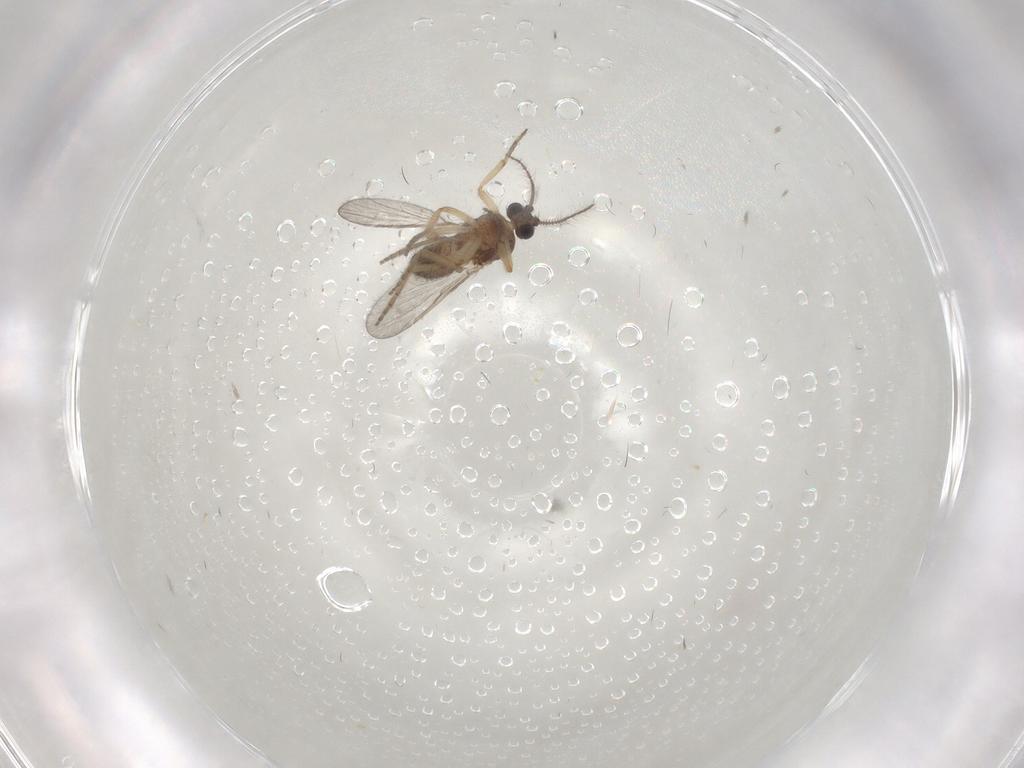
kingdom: Animalia
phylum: Arthropoda
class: Insecta
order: Diptera
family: Phoridae
